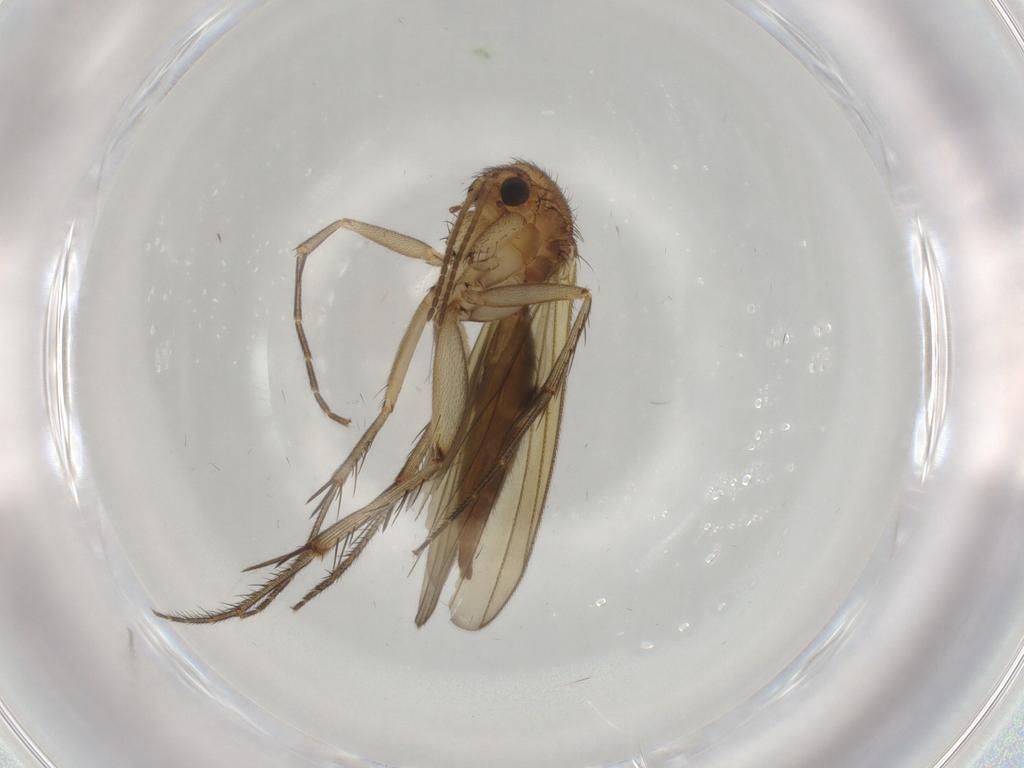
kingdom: Animalia
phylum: Arthropoda
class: Insecta
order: Diptera
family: Mycetophilidae
